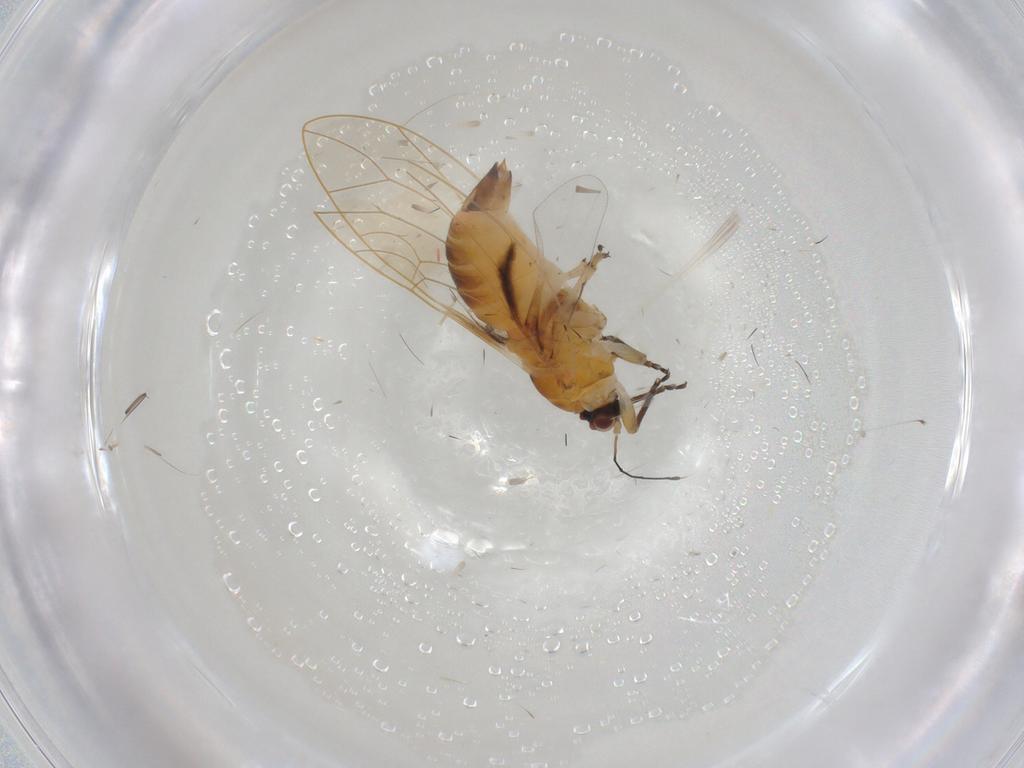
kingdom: Animalia
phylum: Arthropoda
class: Insecta
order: Hemiptera
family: Psylloidea_incertae_sedis
